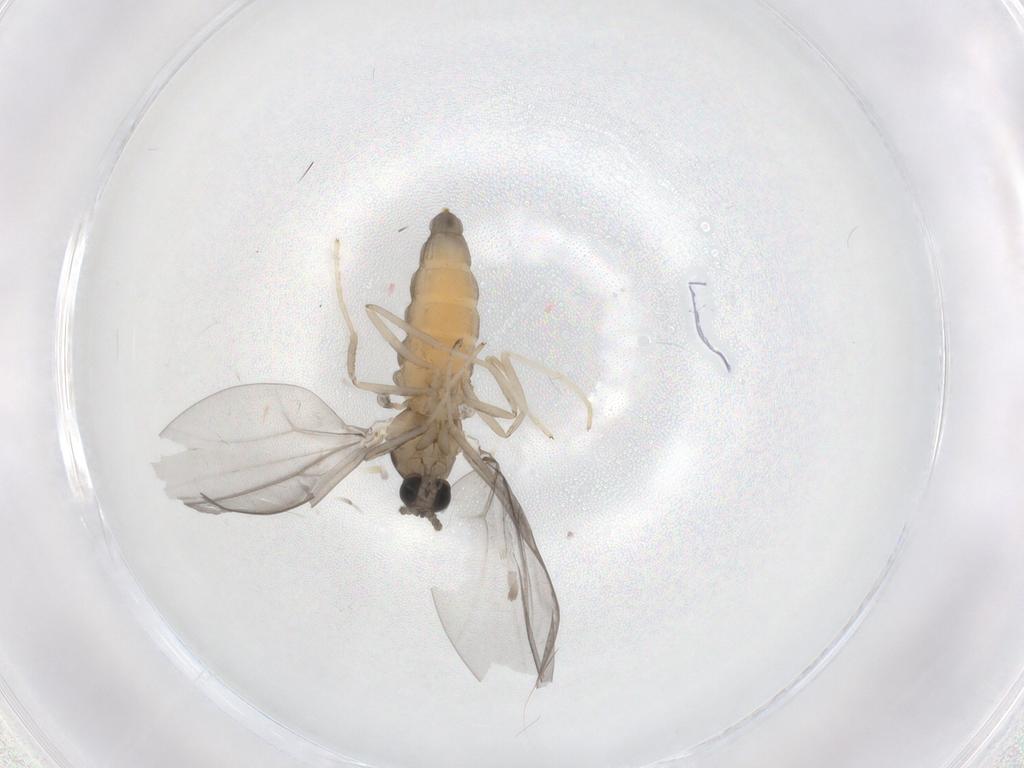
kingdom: Animalia
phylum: Arthropoda
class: Insecta
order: Diptera
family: Cecidomyiidae
